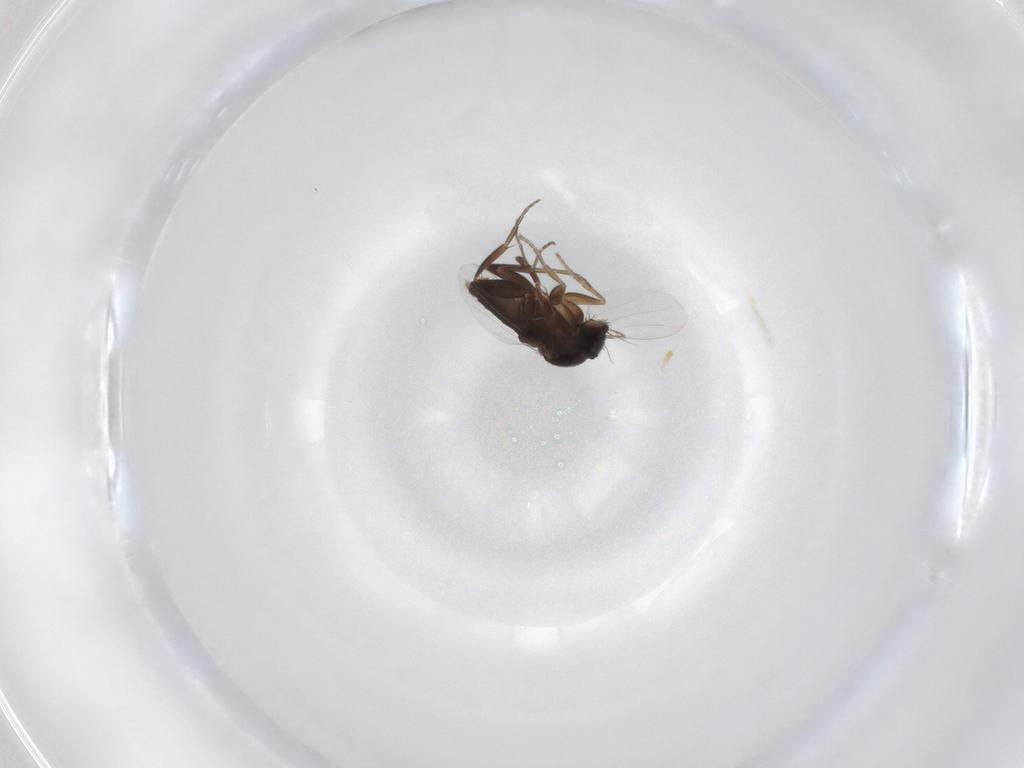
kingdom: Animalia
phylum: Arthropoda
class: Insecta
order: Diptera
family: Phoridae
